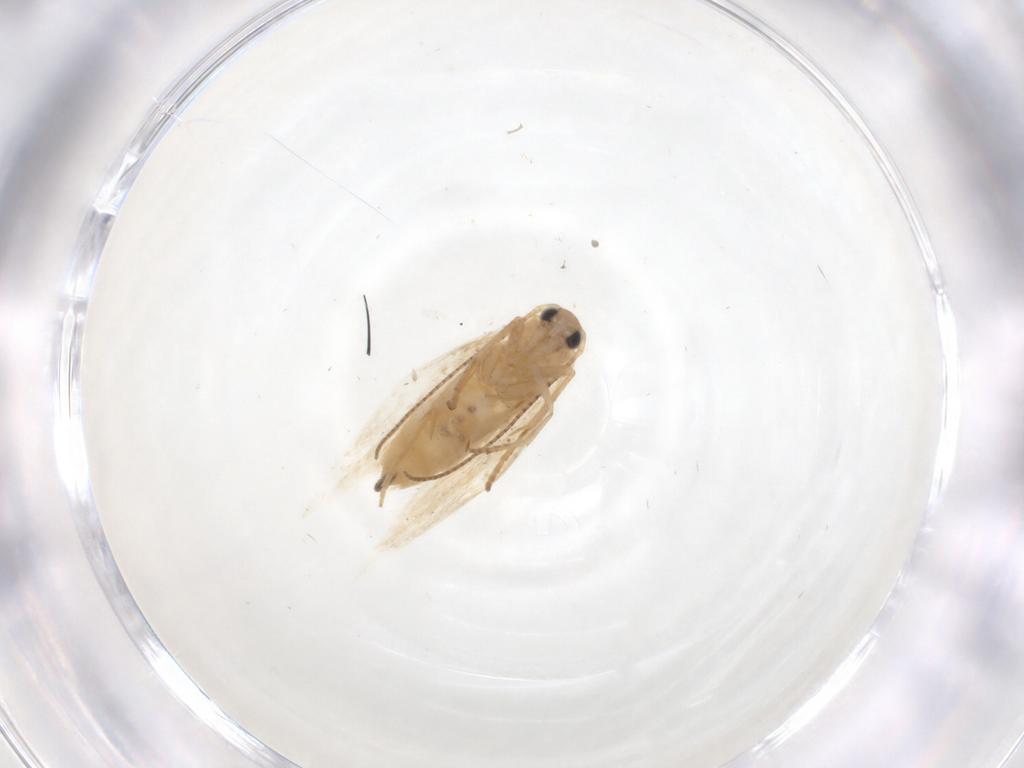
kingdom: Animalia
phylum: Arthropoda
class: Insecta
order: Lepidoptera
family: Bucculatricidae
